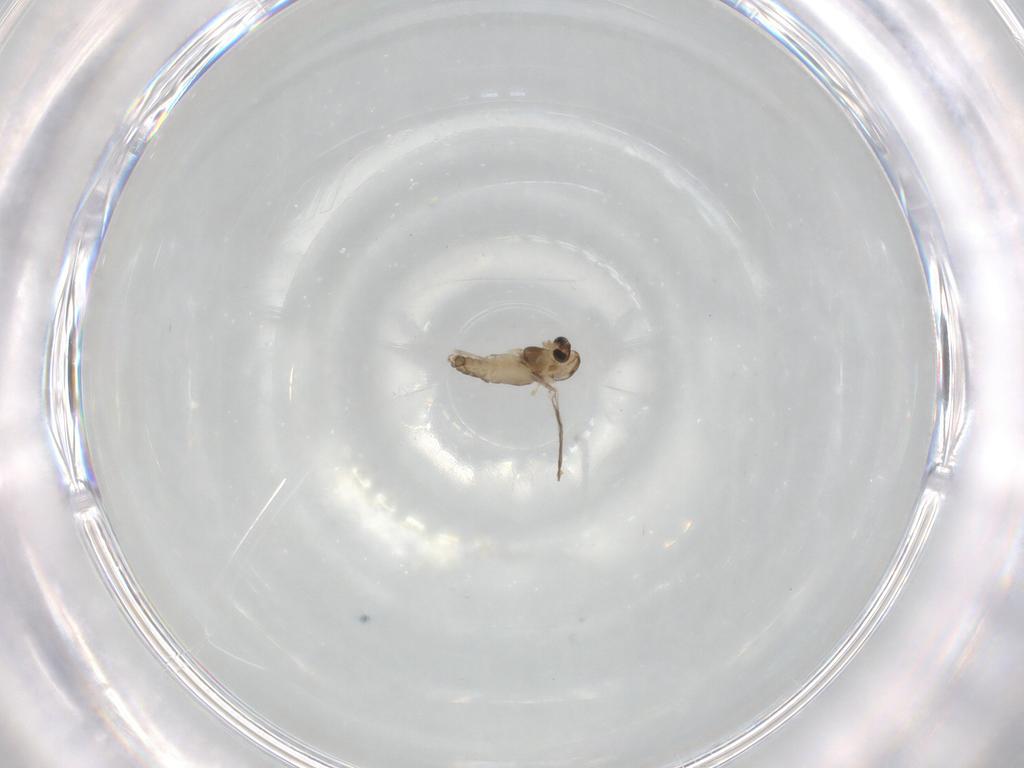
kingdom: Animalia
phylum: Arthropoda
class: Insecta
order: Diptera
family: Chironomidae
